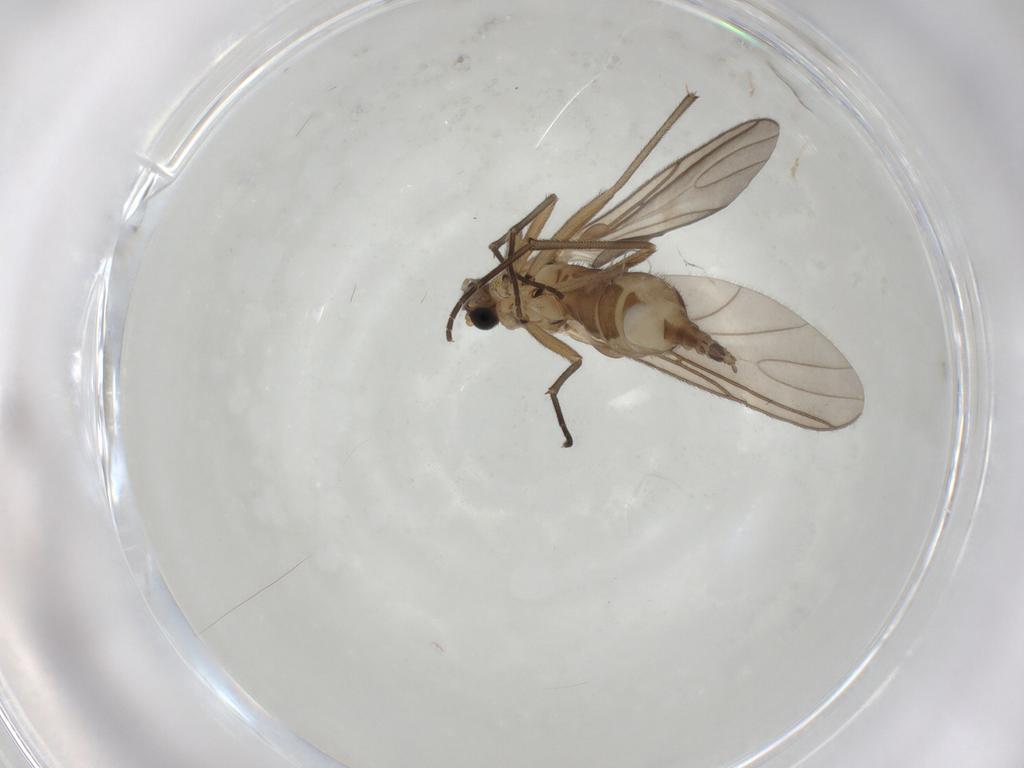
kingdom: Animalia
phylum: Arthropoda
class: Insecta
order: Diptera
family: Sciaridae
